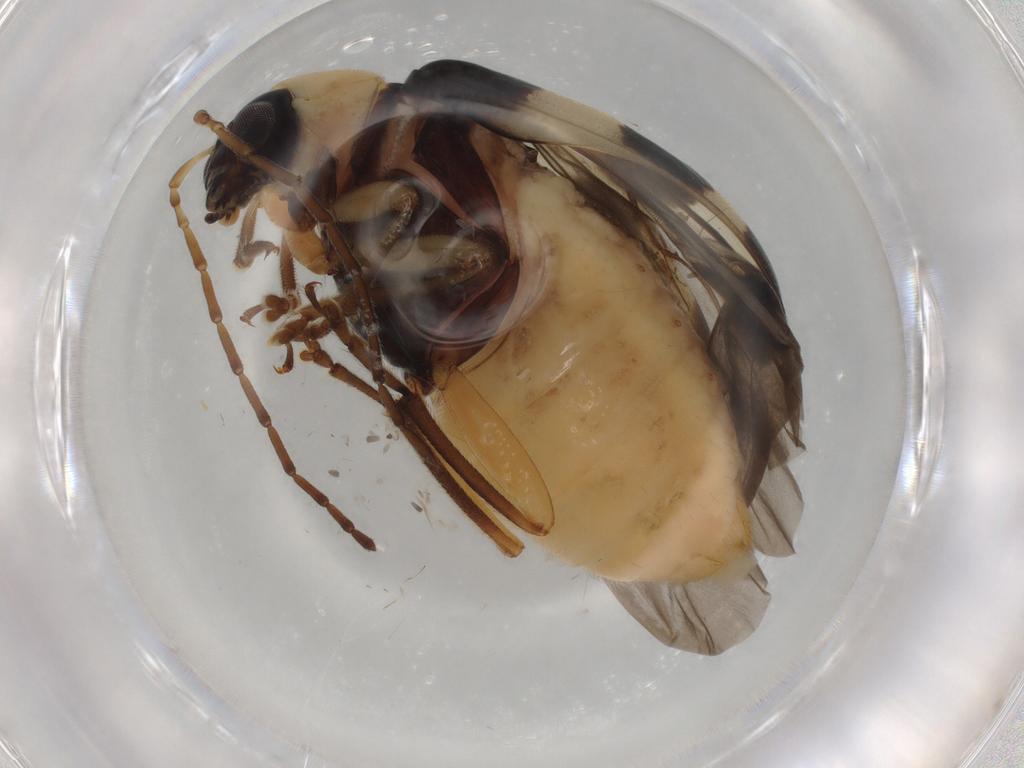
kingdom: Animalia
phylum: Arthropoda
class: Insecta
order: Coleoptera
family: Chrysomelidae
